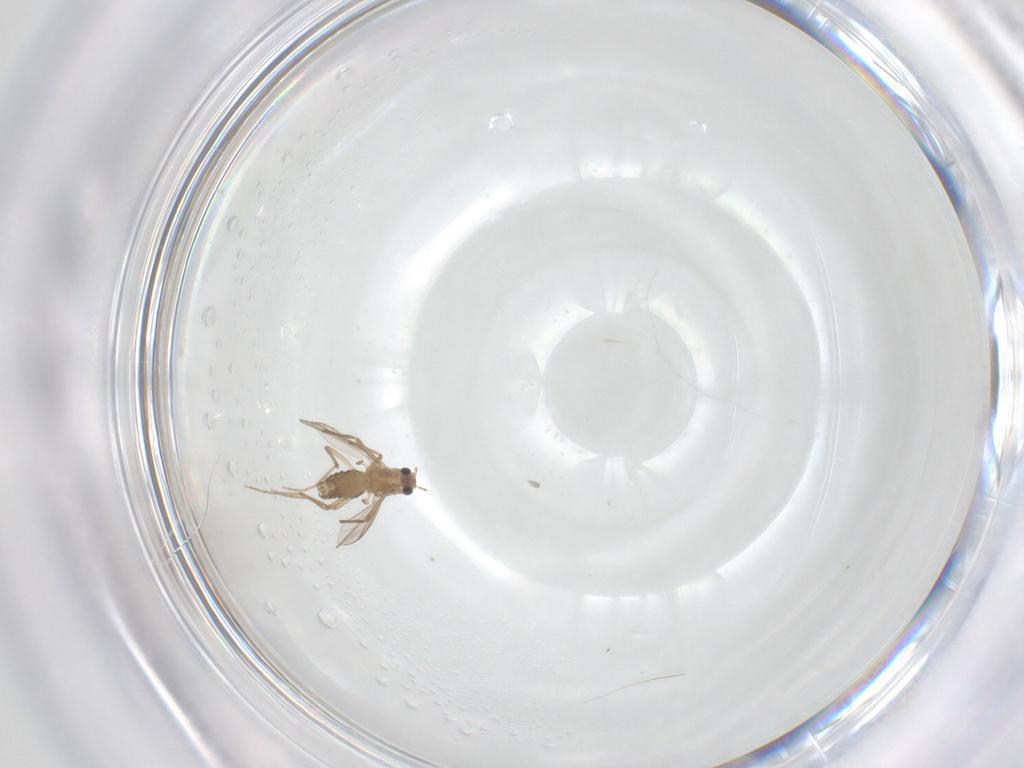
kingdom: Animalia
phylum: Arthropoda
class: Insecta
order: Diptera
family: Chironomidae
